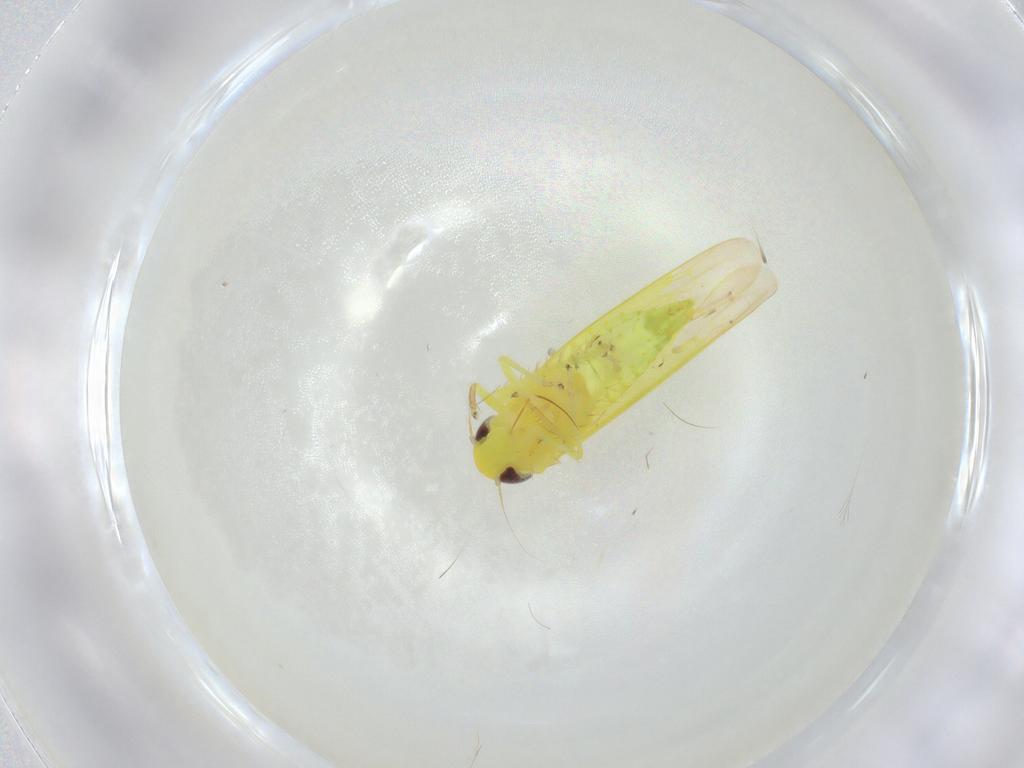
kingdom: Animalia
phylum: Arthropoda
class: Insecta
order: Hemiptera
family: Cicadellidae
